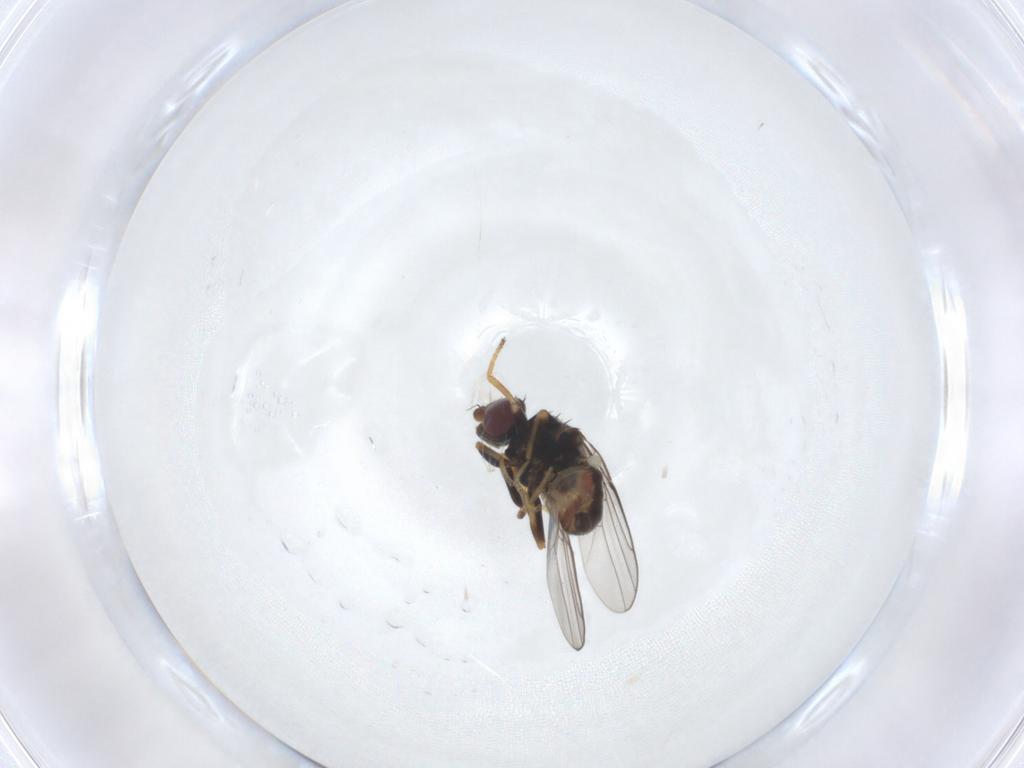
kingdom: Animalia
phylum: Arthropoda
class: Insecta
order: Diptera
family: Chloropidae
